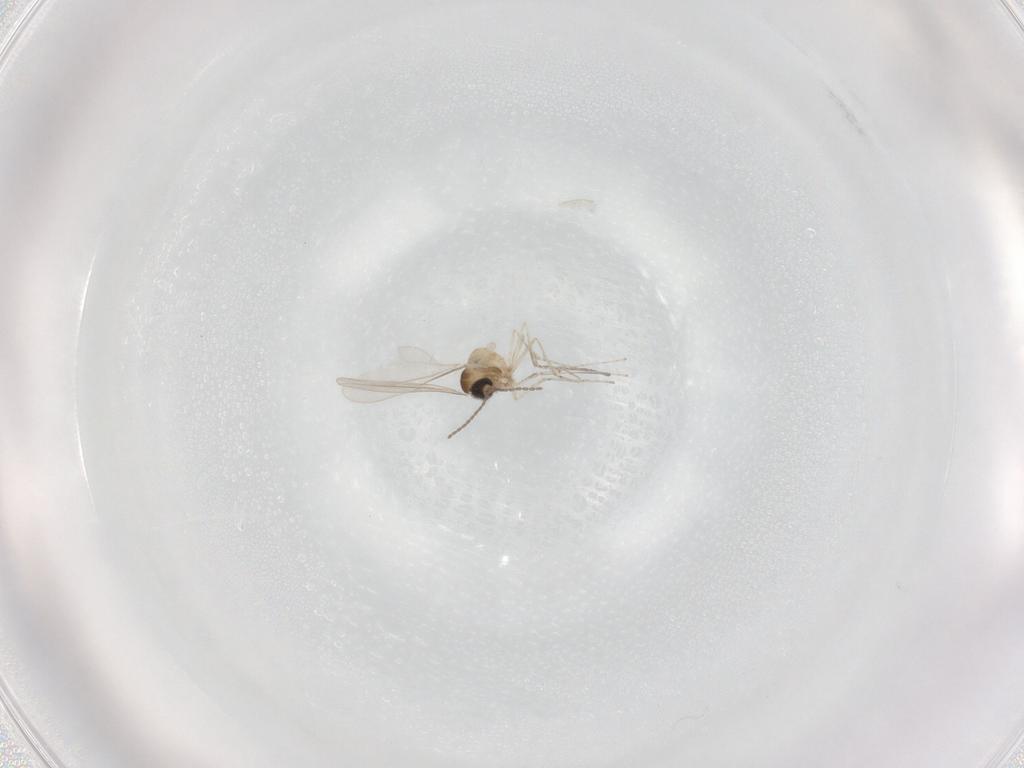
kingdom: Animalia
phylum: Arthropoda
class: Insecta
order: Diptera
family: Cecidomyiidae
